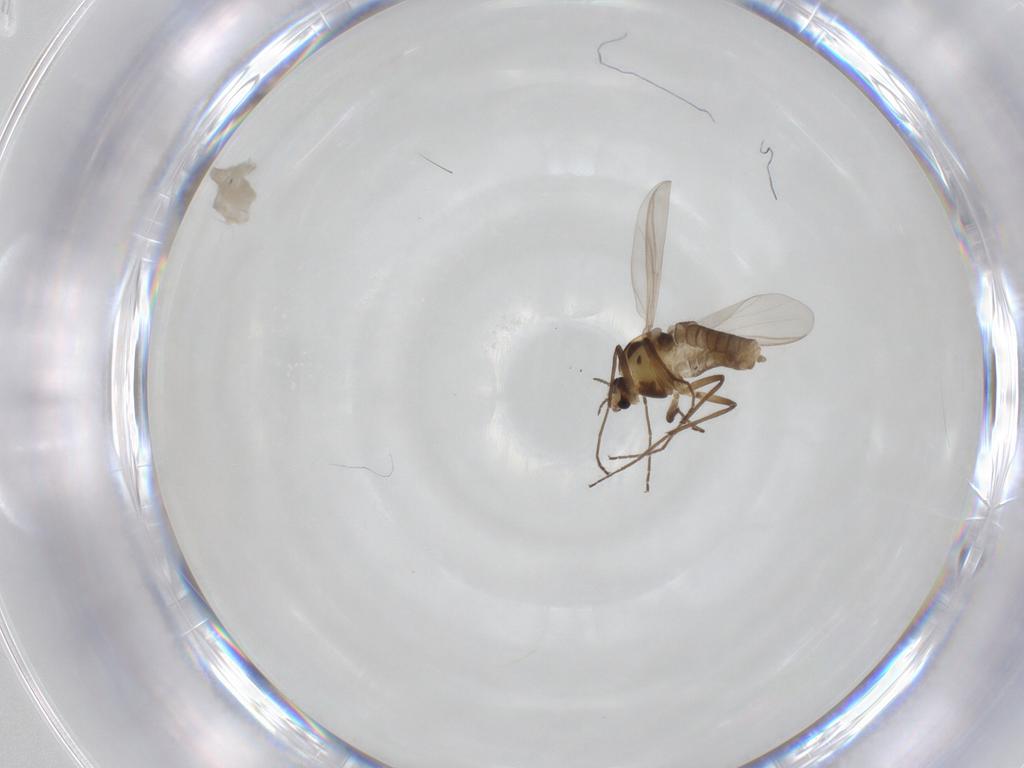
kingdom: Animalia
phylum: Arthropoda
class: Insecta
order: Diptera
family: Chironomidae
